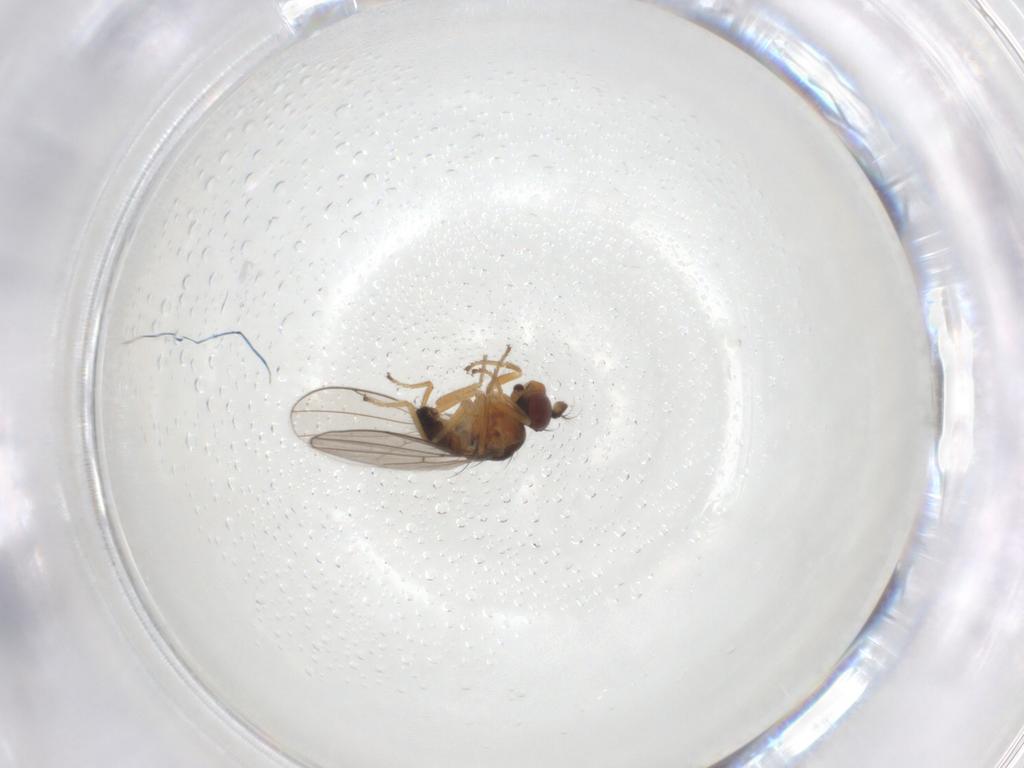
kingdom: Animalia
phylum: Arthropoda
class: Insecta
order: Diptera
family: Ephydridae
